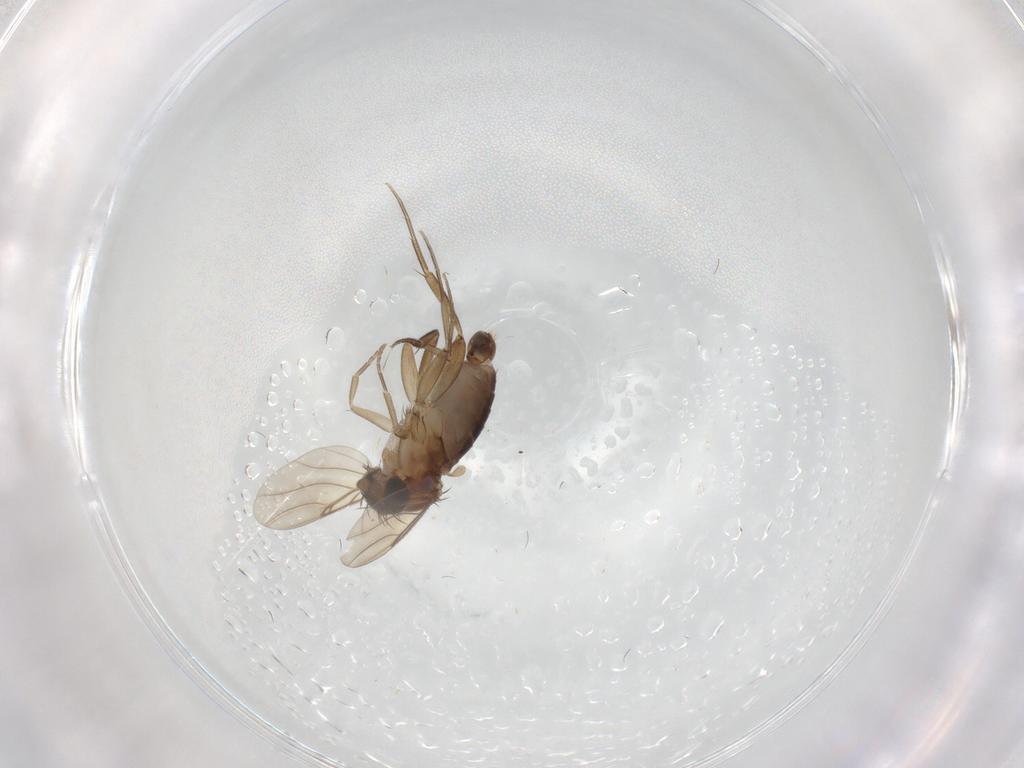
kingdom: Animalia
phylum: Arthropoda
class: Insecta
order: Diptera
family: Phoridae
